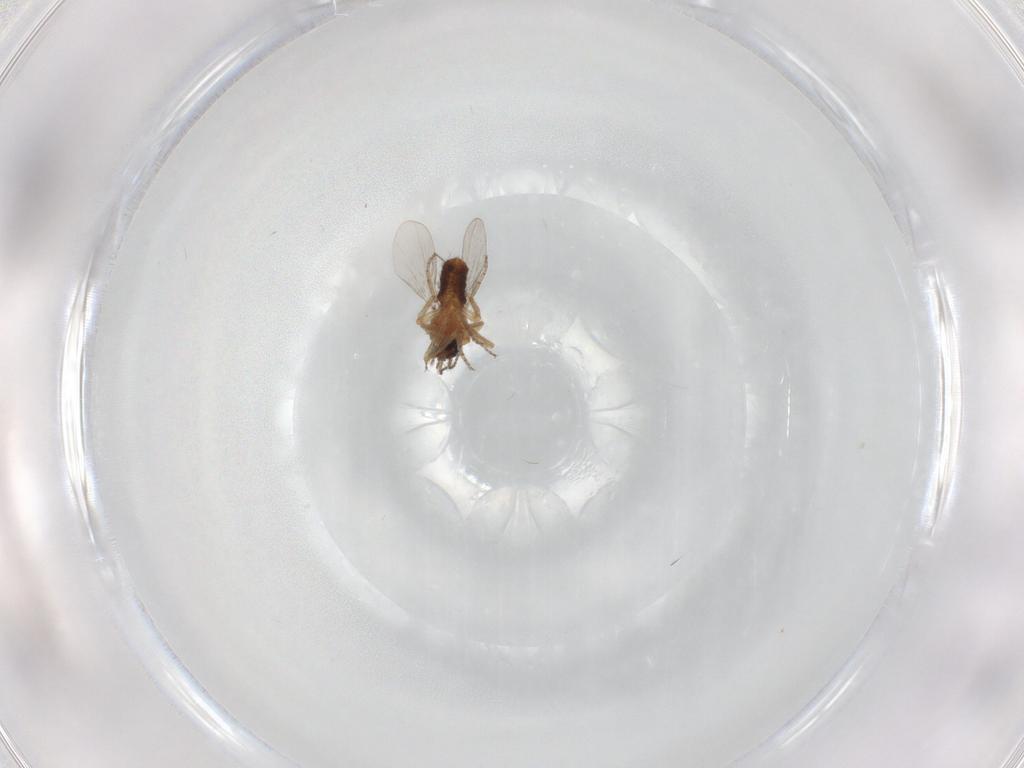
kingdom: Animalia
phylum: Arthropoda
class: Insecta
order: Diptera
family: Ceratopogonidae
